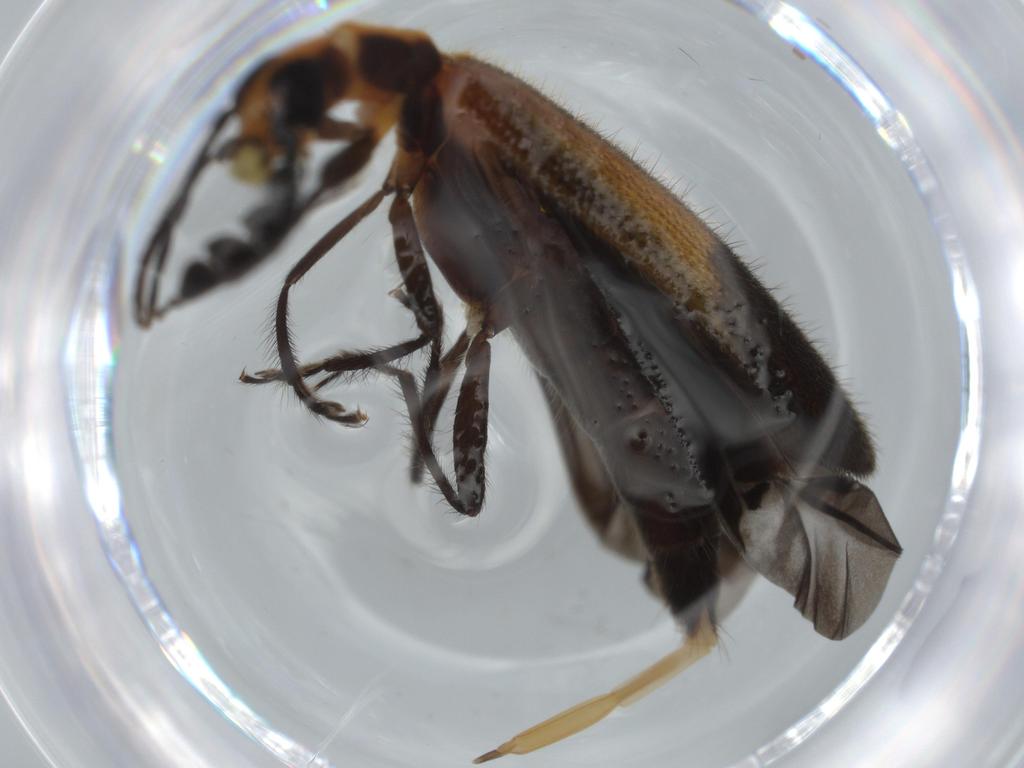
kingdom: Animalia
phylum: Arthropoda
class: Insecta
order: Coleoptera
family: Cleridae
